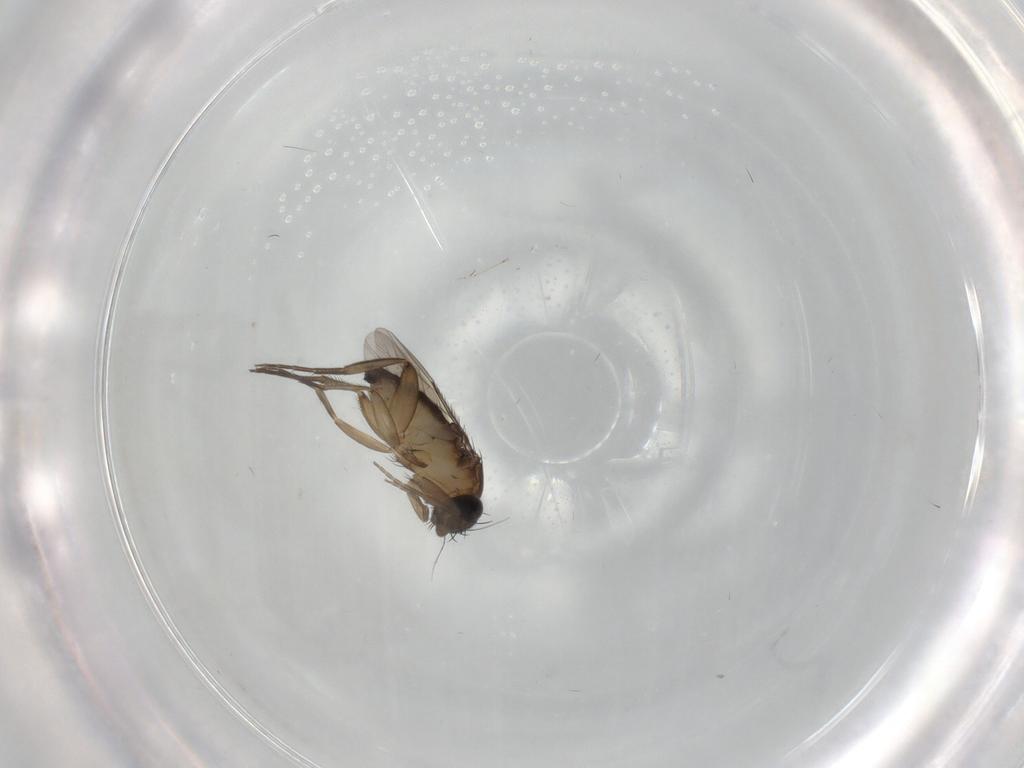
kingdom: Animalia
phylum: Arthropoda
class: Insecta
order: Diptera
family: Phoridae
